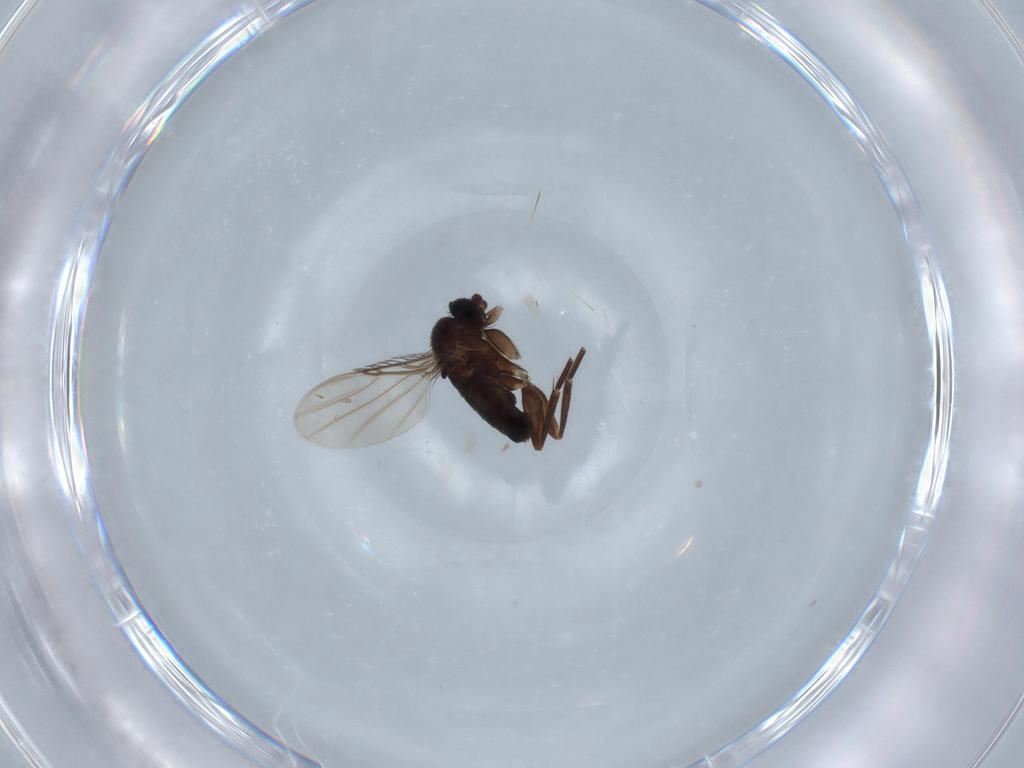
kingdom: Animalia
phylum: Arthropoda
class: Insecta
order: Diptera
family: Phoridae
